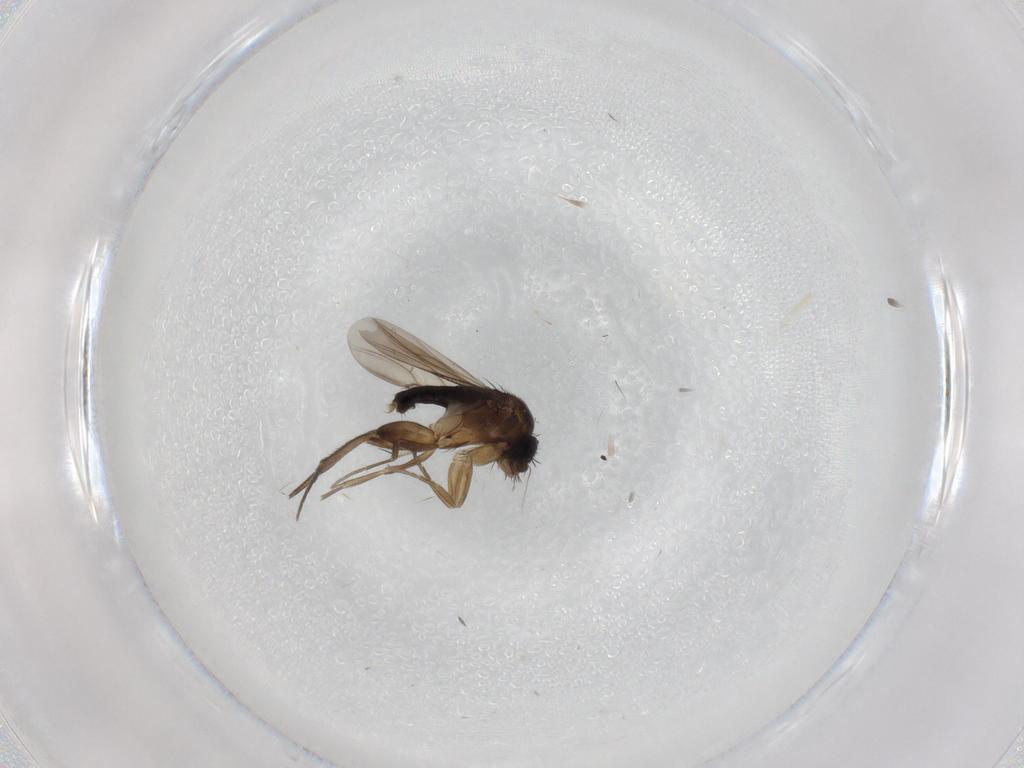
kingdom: Animalia
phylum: Arthropoda
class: Insecta
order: Diptera
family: Phoridae
